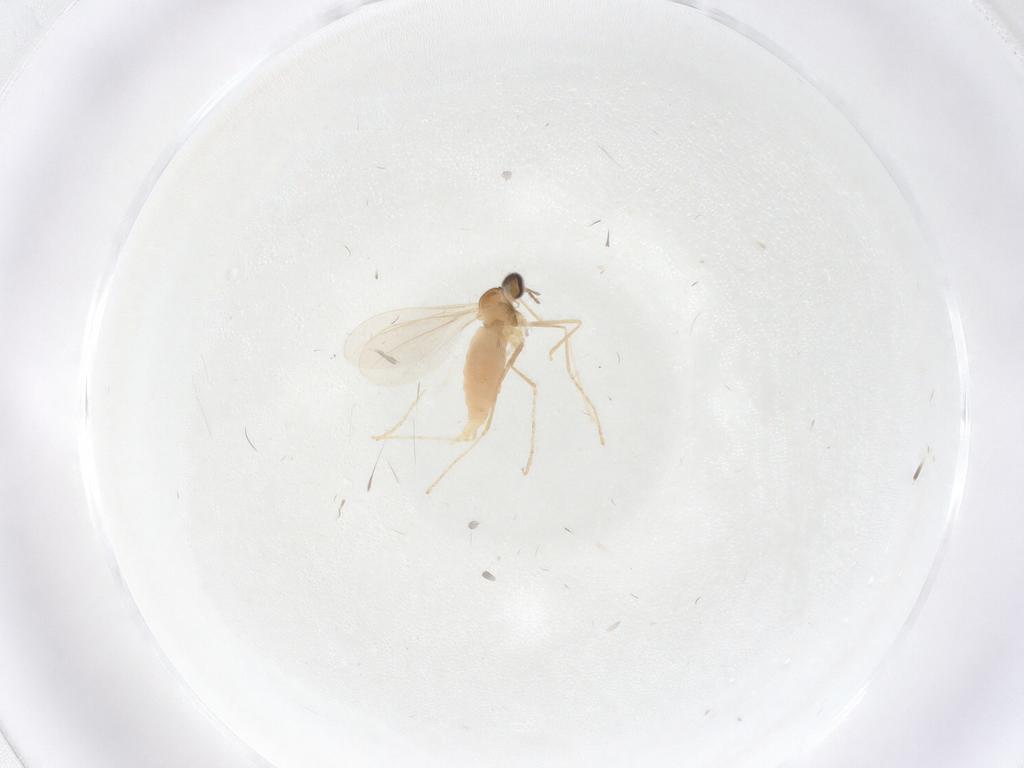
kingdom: Animalia
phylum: Arthropoda
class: Insecta
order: Diptera
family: Cecidomyiidae
